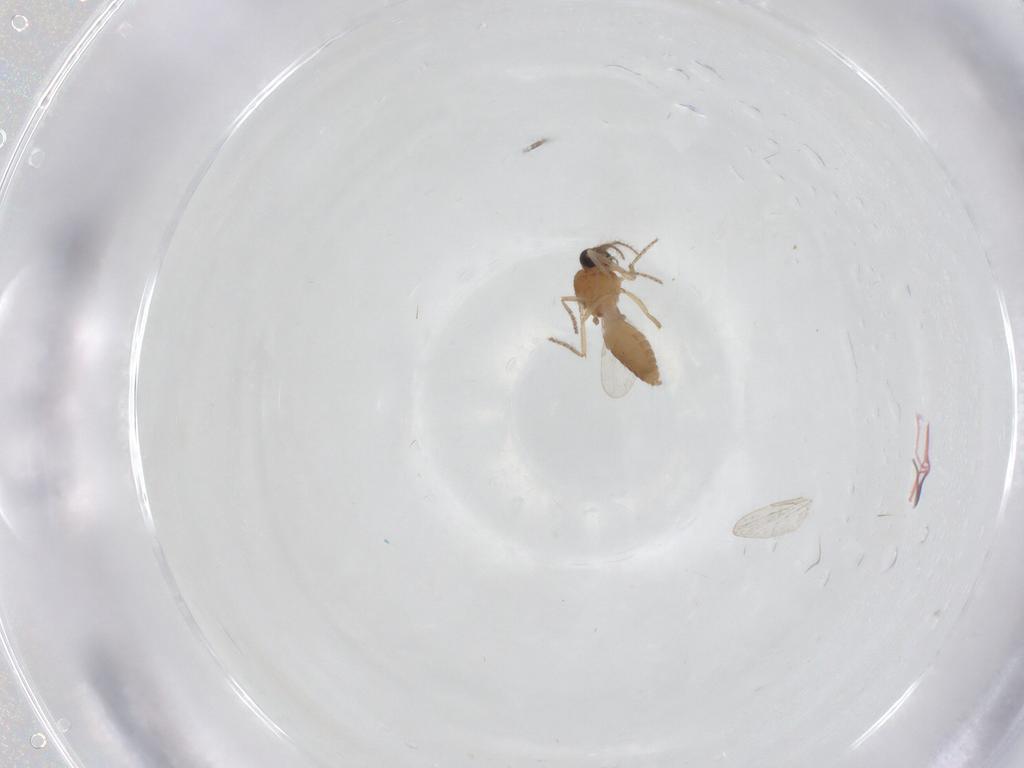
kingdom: Animalia
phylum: Arthropoda
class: Insecta
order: Diptera
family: Ceratopogonidae
